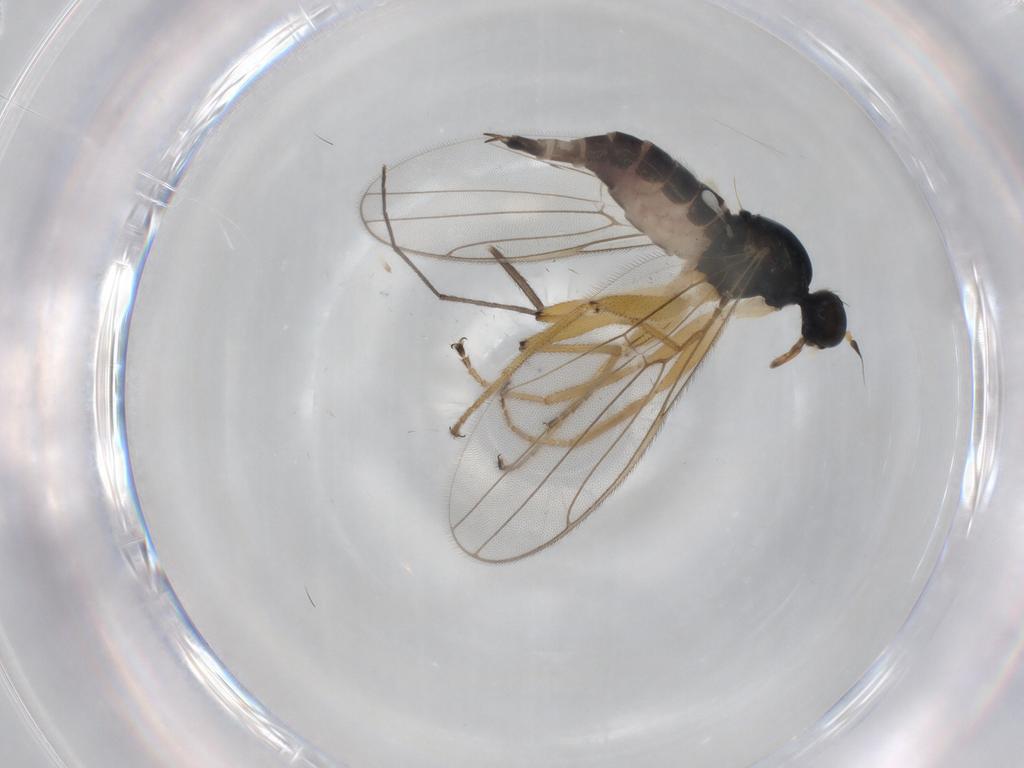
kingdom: Animalia
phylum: Arthropoda
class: Insecta
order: Diptera
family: Hybotidae
